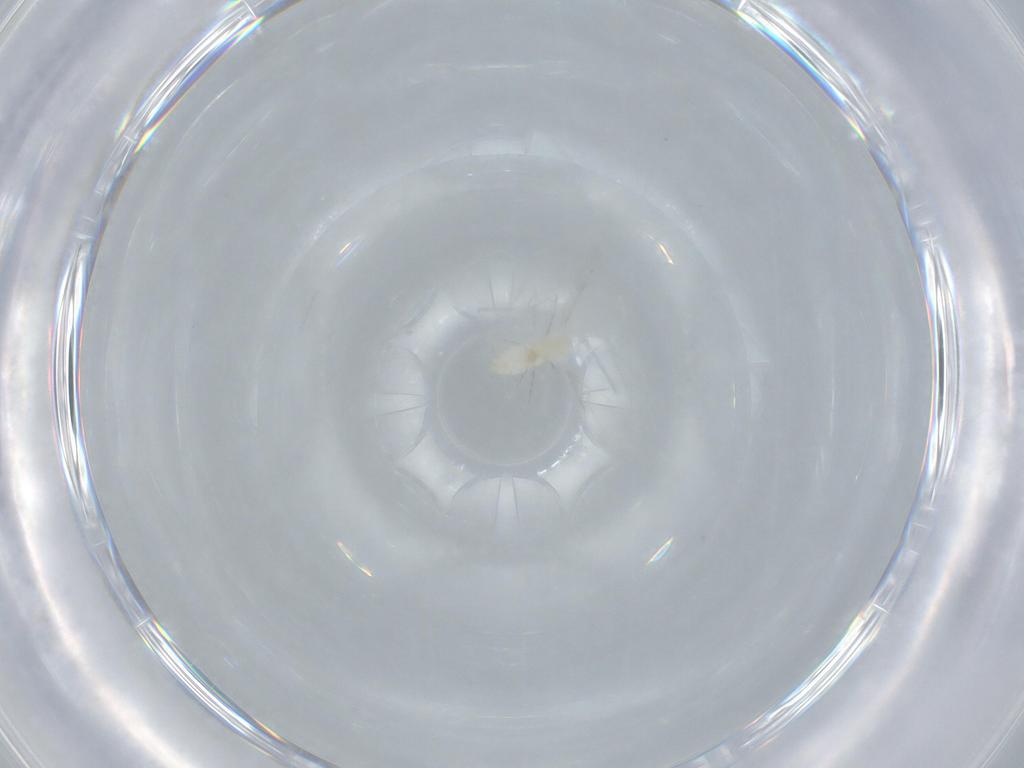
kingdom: Animalia
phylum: Arthropoda
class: Insecta
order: Diptera
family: Cecidomyiidae
